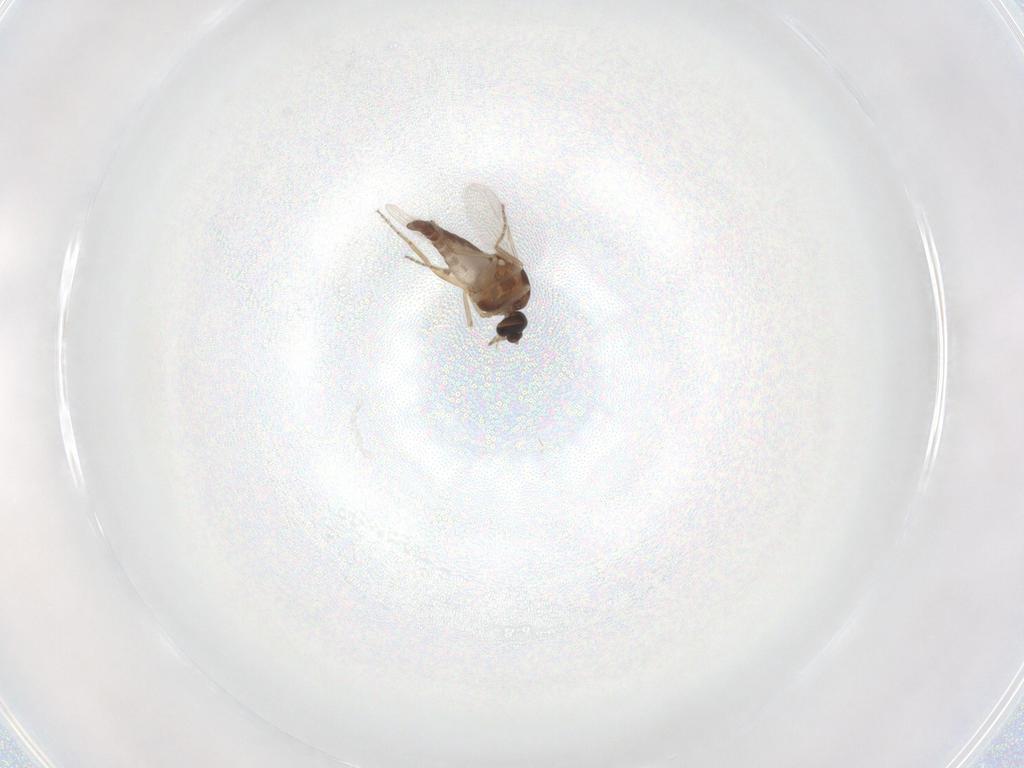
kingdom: Animalia
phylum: Arthropoda
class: Insecta
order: Diptera
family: Ceratopogonidae
